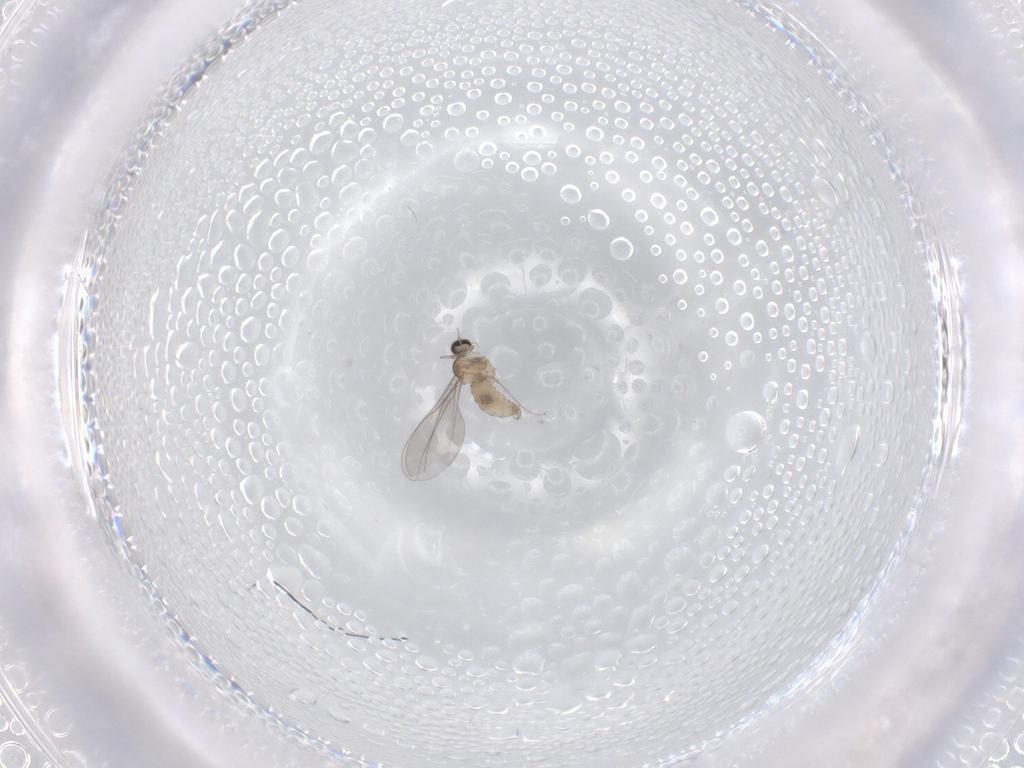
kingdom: Animalia
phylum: Arthropoda
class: Insecta
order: Diptera
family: Cecidomyiidae
